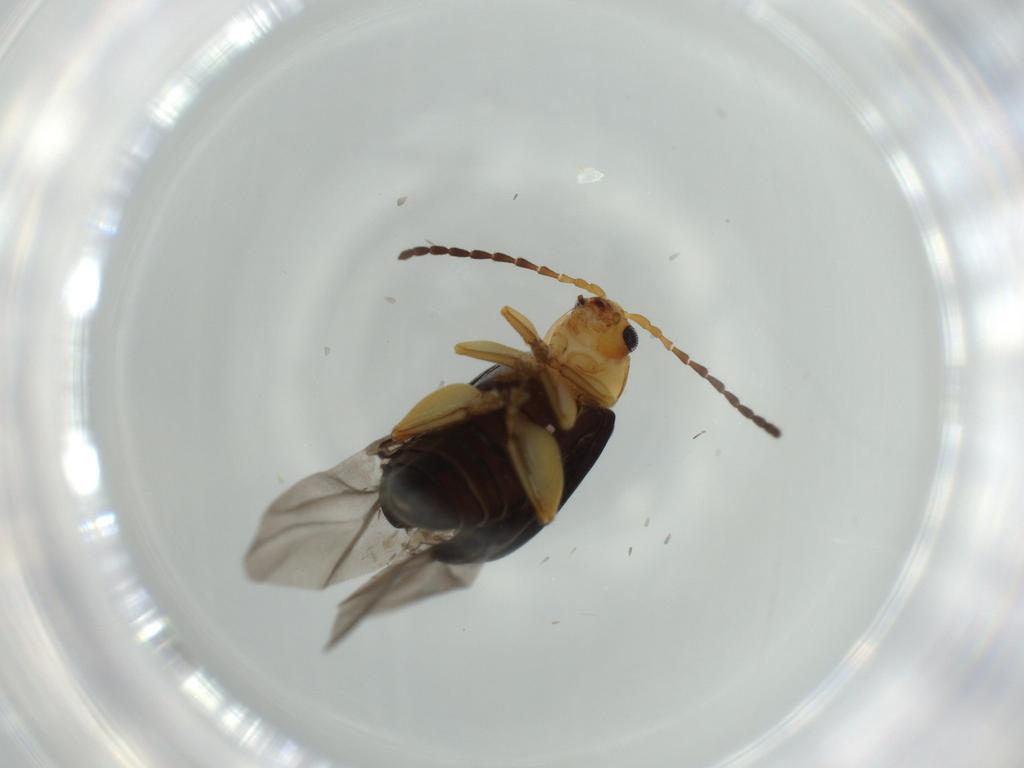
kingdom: Animalia
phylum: Arthropoda
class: Insecta
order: Coleoptera
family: Chrysomelidae
